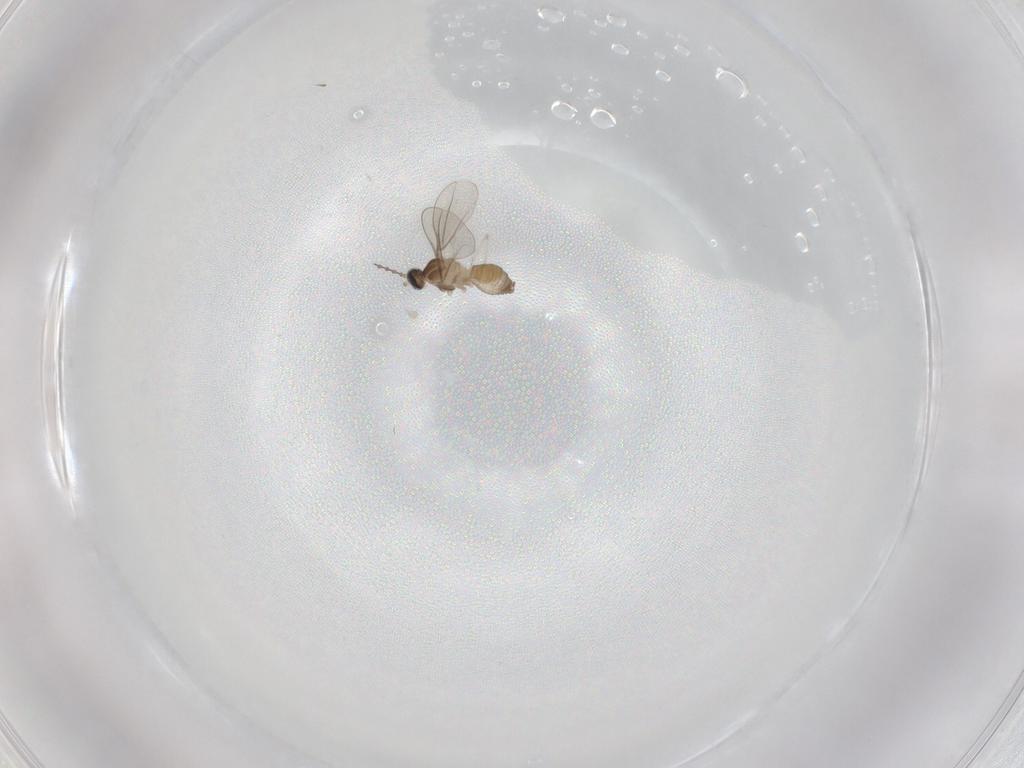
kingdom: Animalia
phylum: Arthropoda
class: Insecta
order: Diptera
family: Cecidomyiidae
